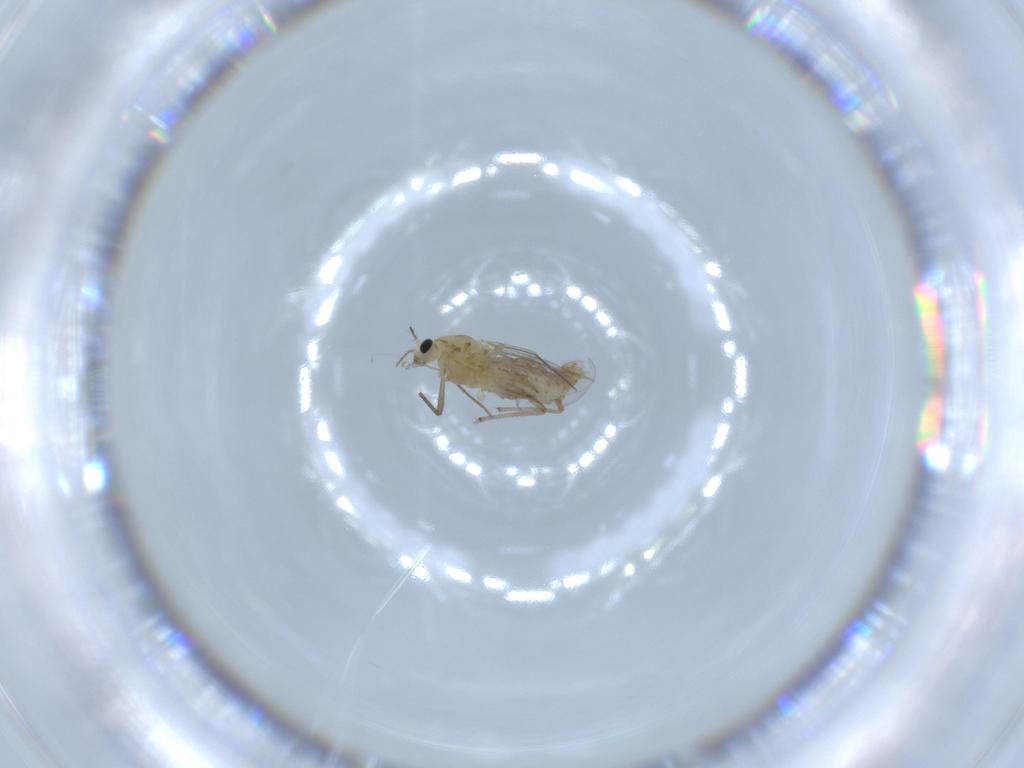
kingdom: Animalia
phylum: Arthropoda
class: Insecta
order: Diptera
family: Chironomidae
